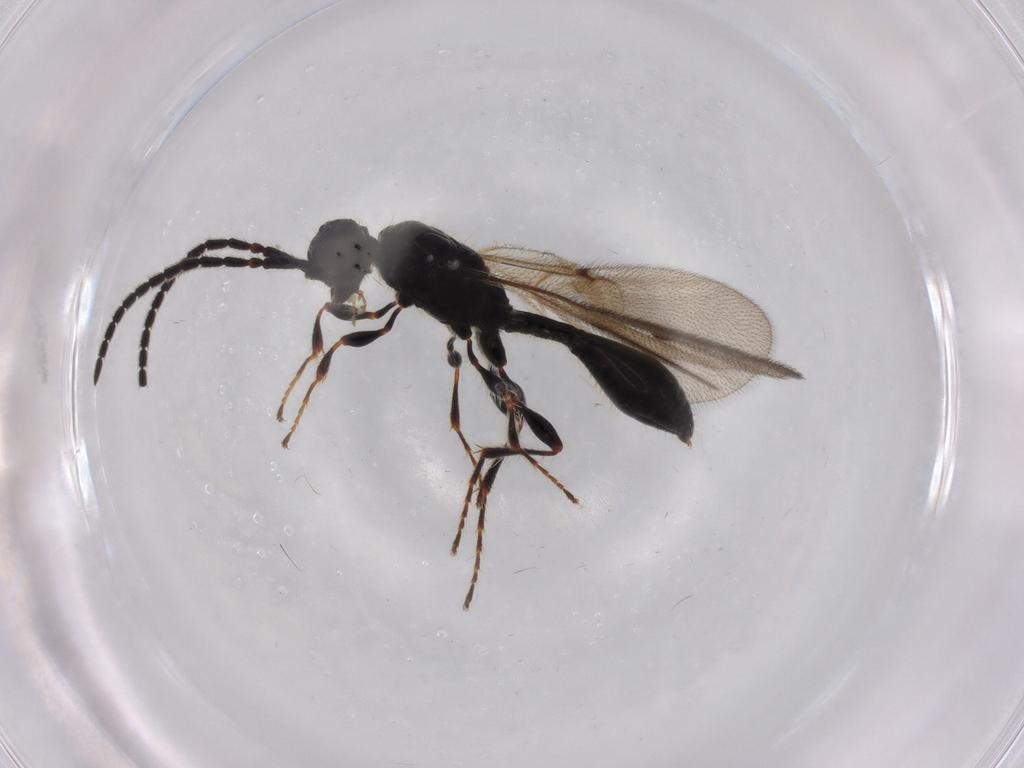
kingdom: Animalia
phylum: Arthropoda
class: Insecta
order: Hymenoptera
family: Diapriidae
